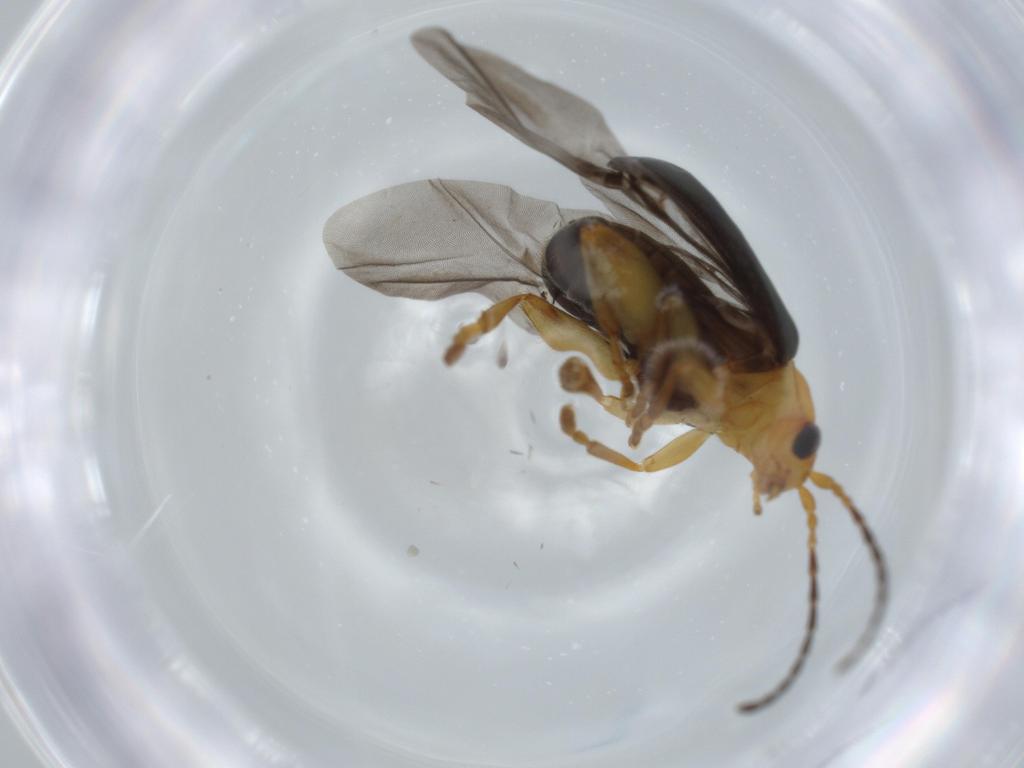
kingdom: Animalia
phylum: Arthropoda
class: Insecta
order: Coleoptera
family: Chrysomelidae
